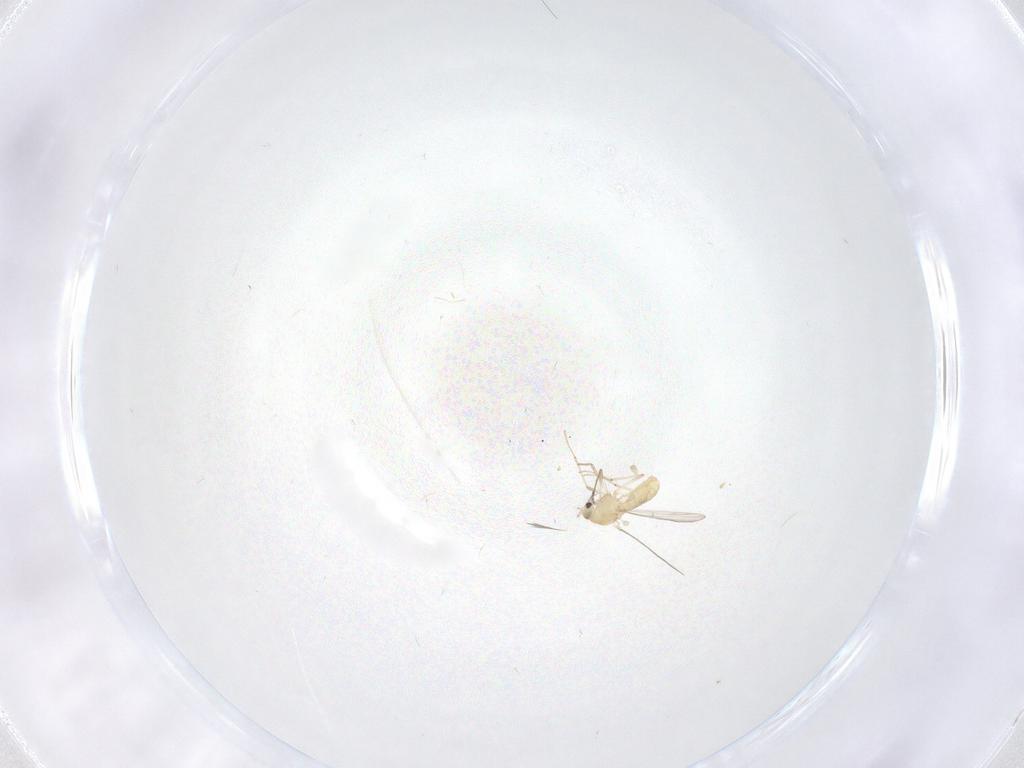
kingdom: Animalia
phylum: Arthropoda
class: Insecta
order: Diptera
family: Chironomidae
